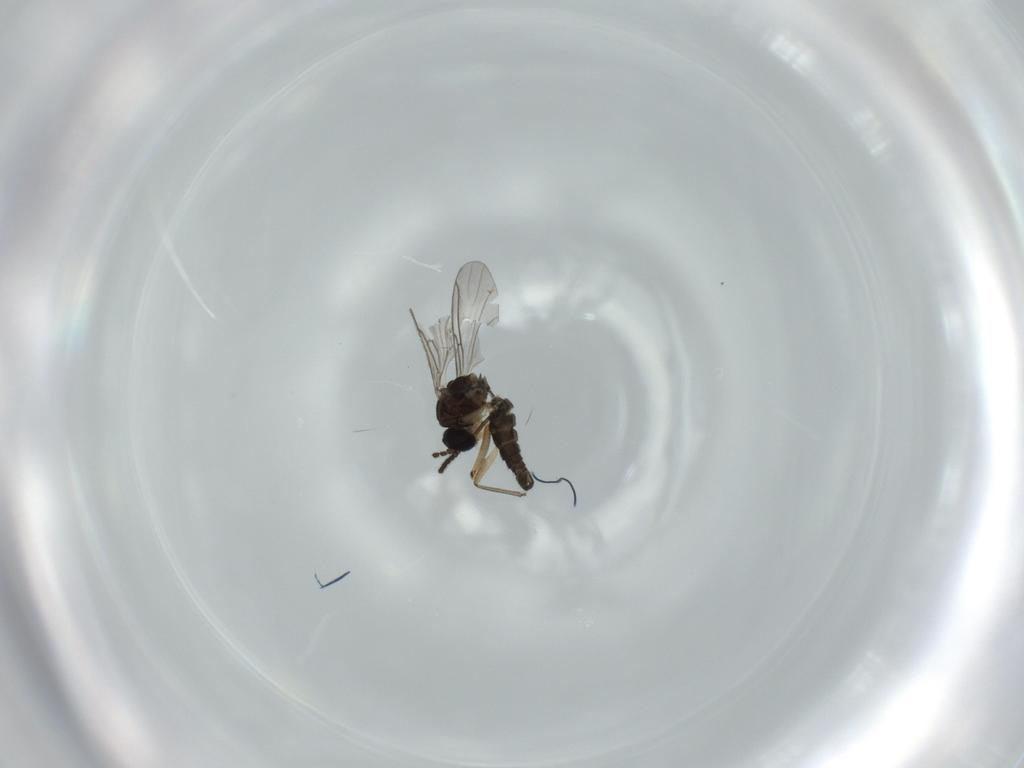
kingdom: Animalia
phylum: Arthropoda
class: Insecta
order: Diptera
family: Sciaridae
